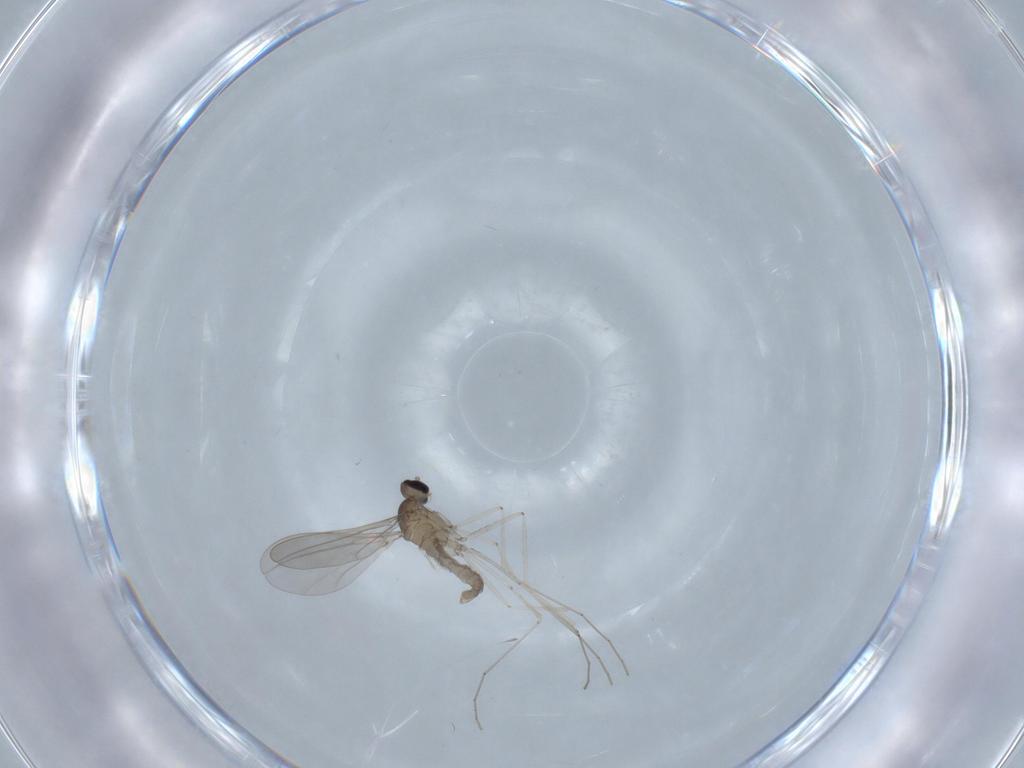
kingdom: Animalia
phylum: Arthropoda
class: Insecta
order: Diptera
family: Cecidomyiidae
